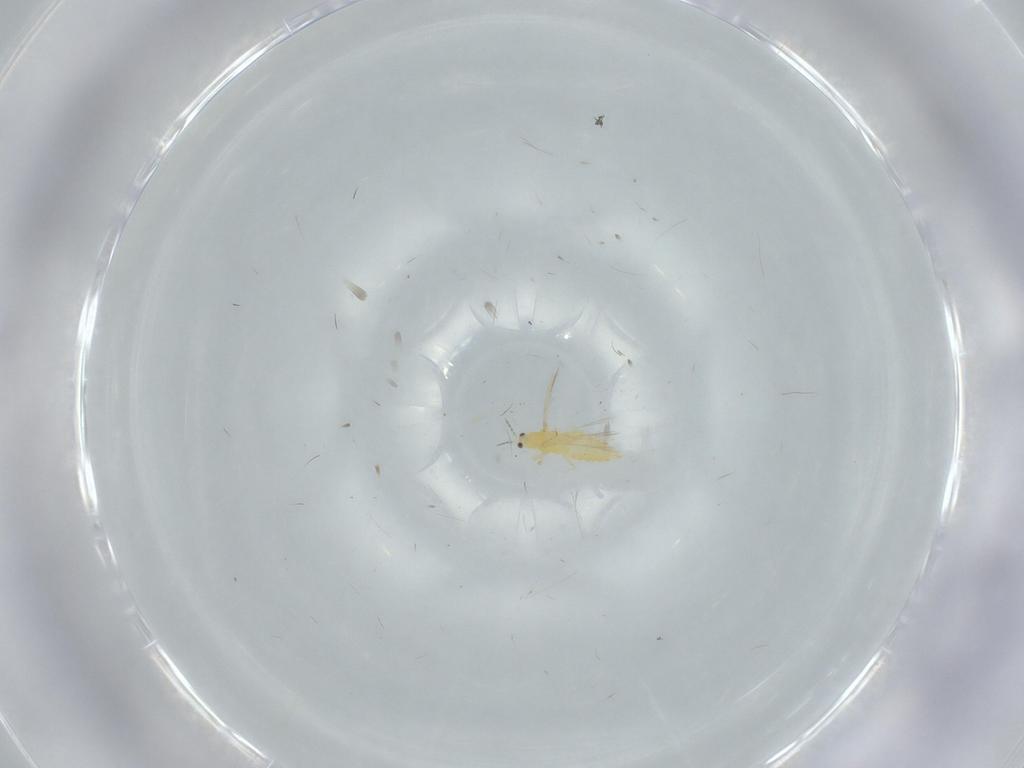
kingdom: Animalia
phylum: Arthropoda
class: Insecta
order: Thysanoptera
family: Thripidae
